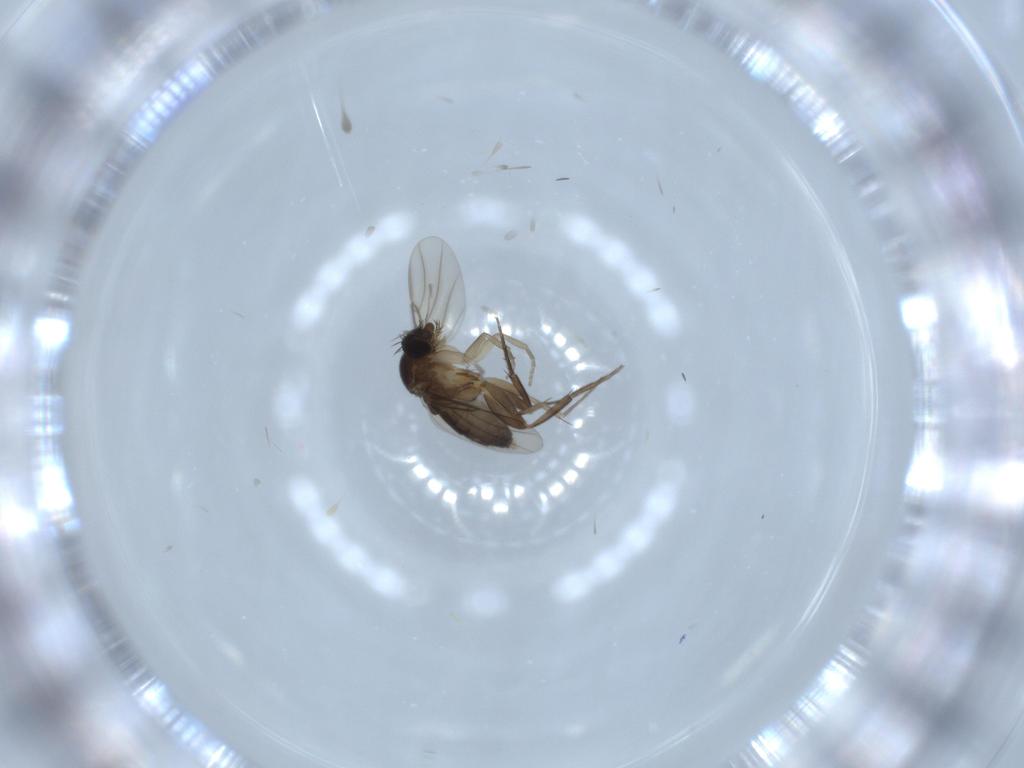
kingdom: Animalia
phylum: Arthropoda
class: Insecta
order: Diptera
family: Phoridae
